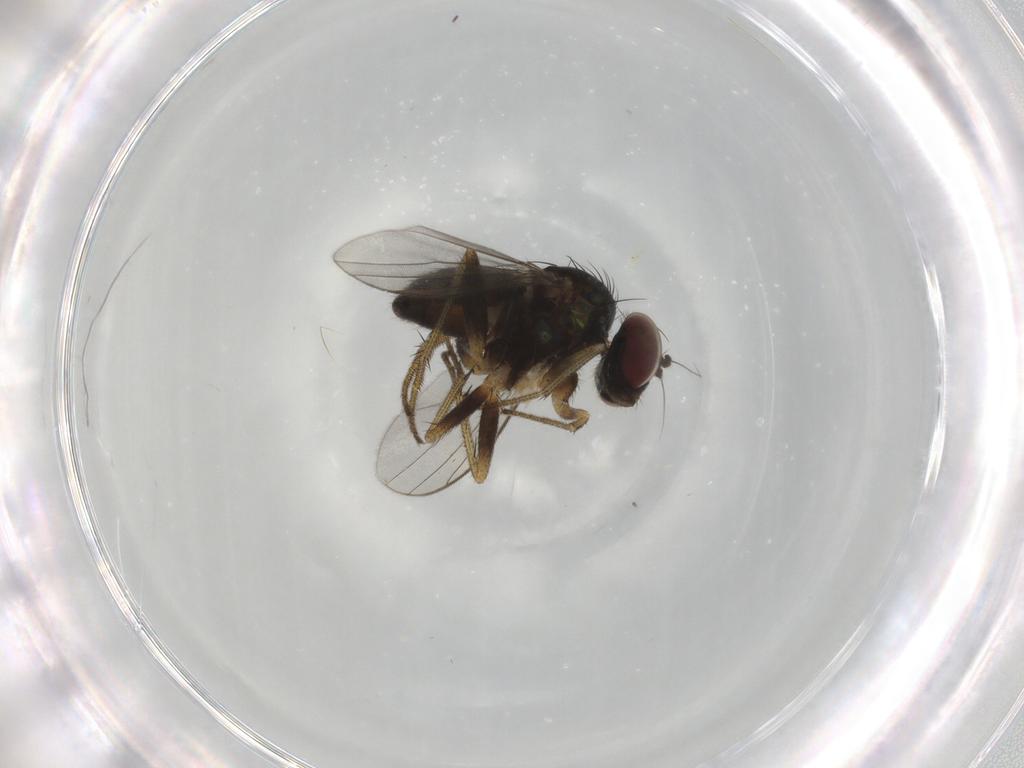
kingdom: Animalia
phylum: Arthropoda
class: Insecta
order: Diptera
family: Dolichopodidae
